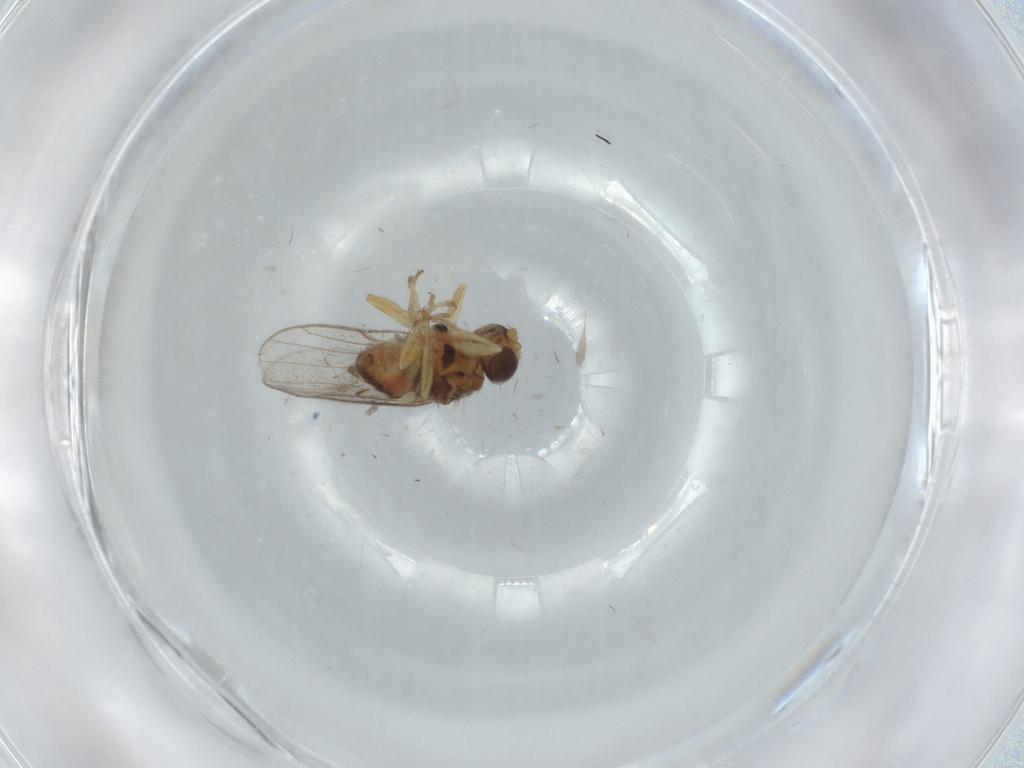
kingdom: Animalia
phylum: Arthropoda
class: Insecta
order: Diptera
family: Chloropidae
